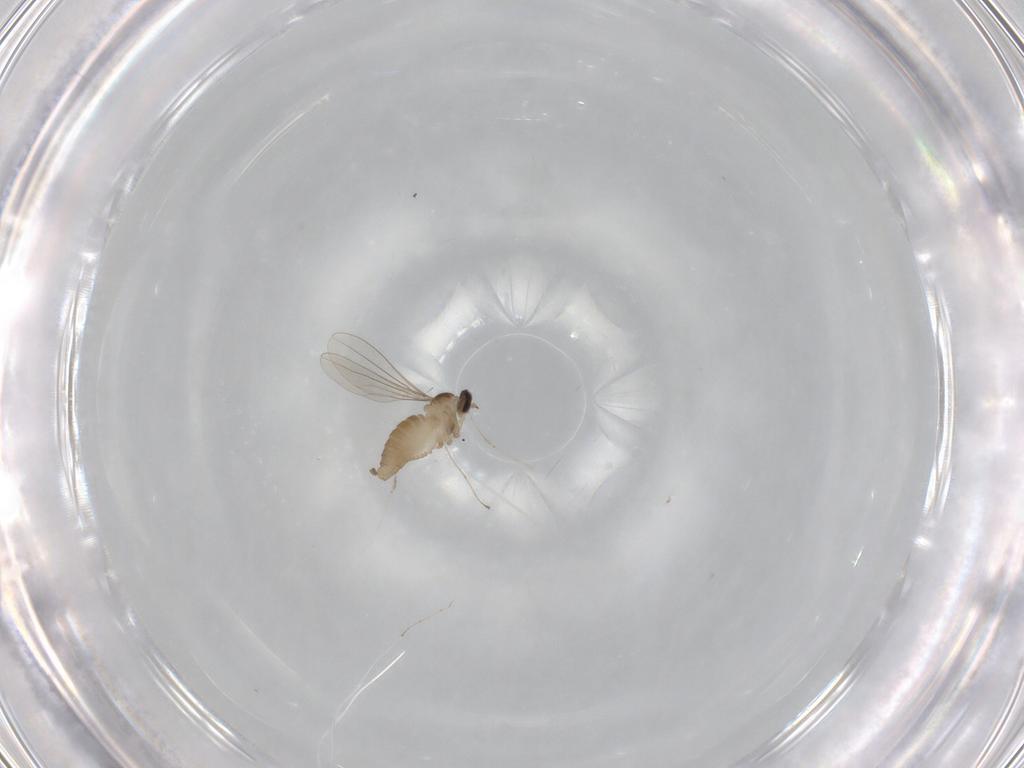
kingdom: Animalia
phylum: Arthropoda
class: Insecta
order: Diptera
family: Cecidomyiidae
